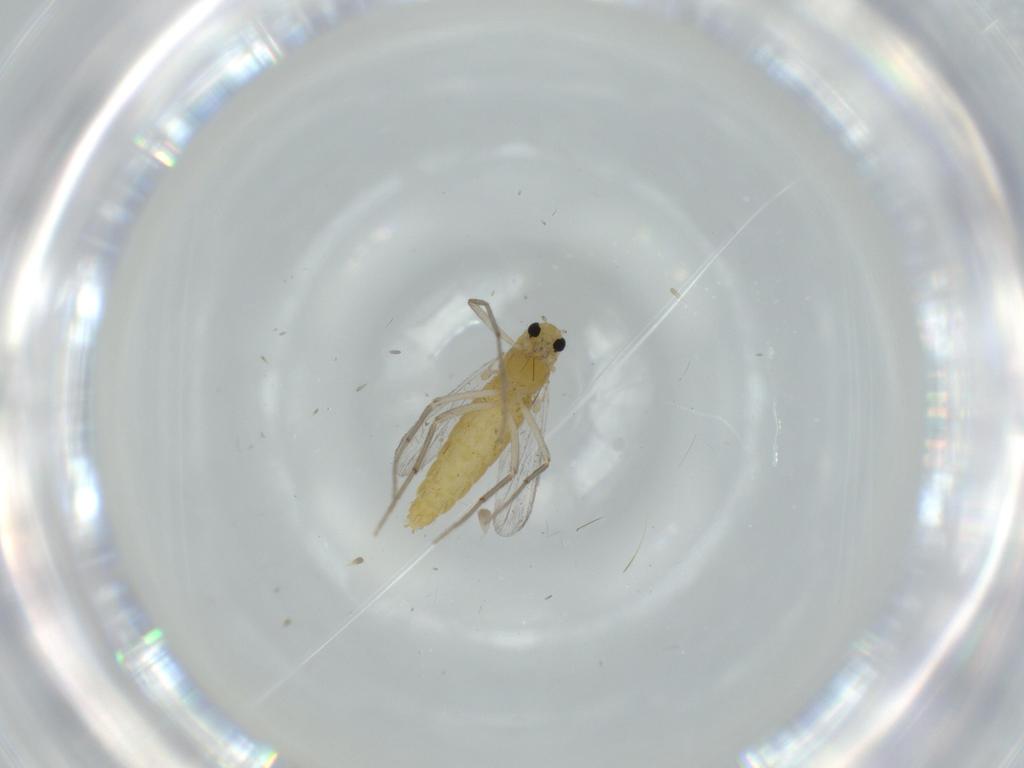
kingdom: Animalia
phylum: Arthropoda
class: Insecta
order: Diptera
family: Chironomidae
